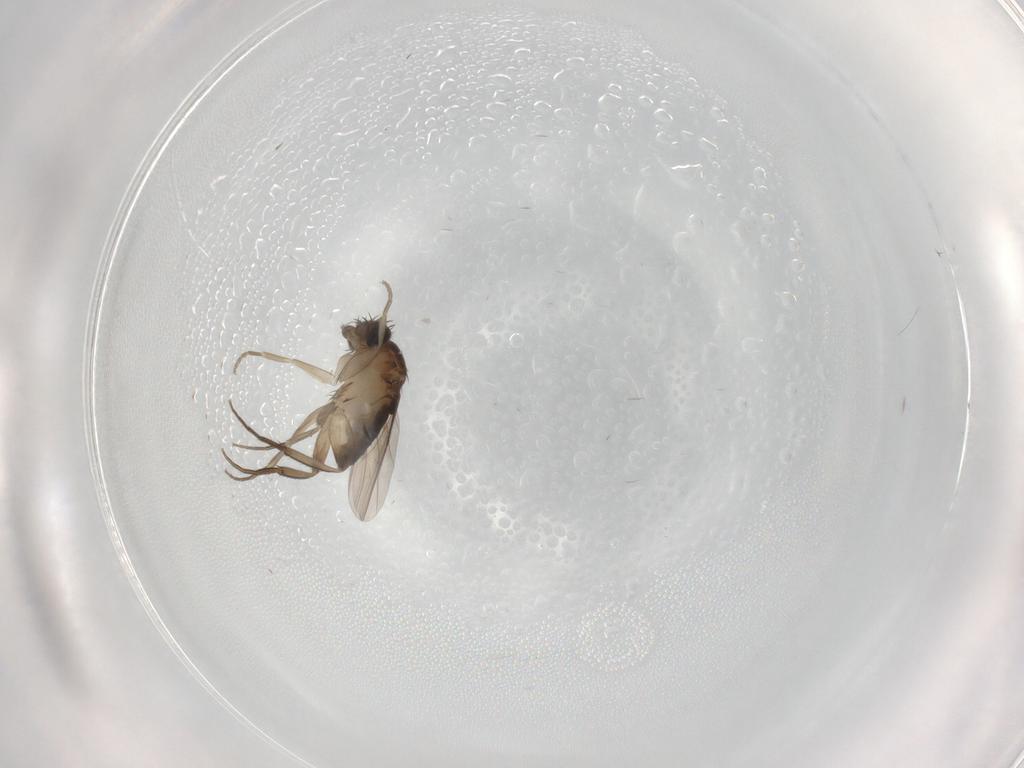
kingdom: Animalia
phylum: Arthropoda
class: Insecta
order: Diptera
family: Phoridae
